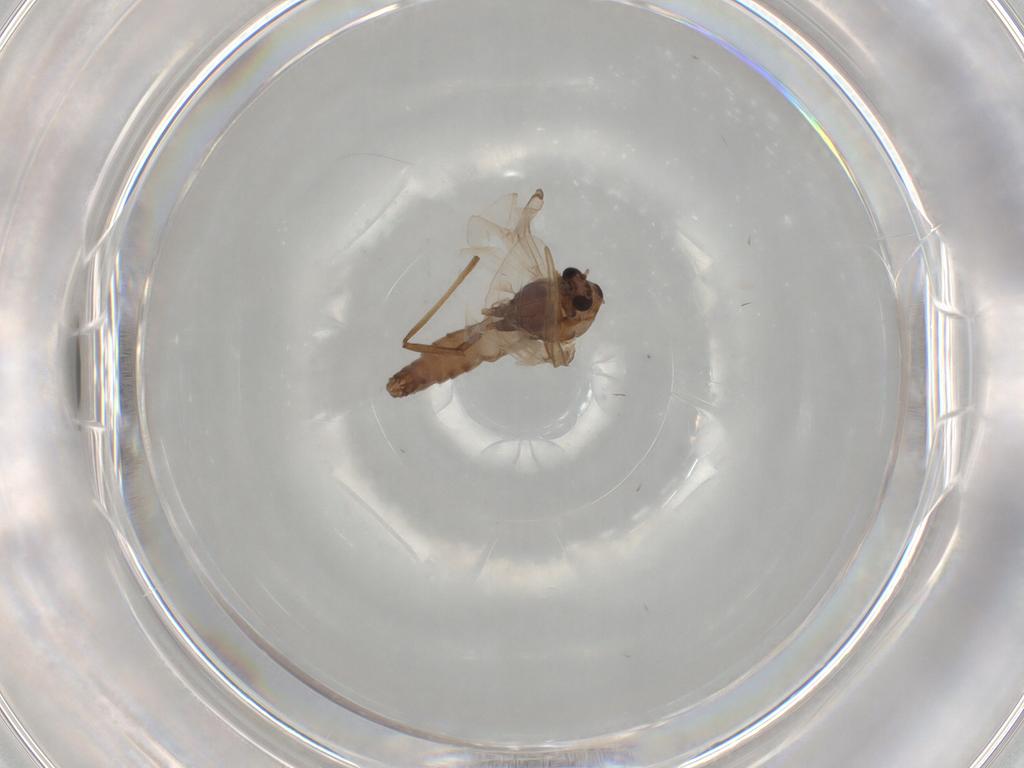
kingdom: Animalia
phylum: Arthropoda
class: Insecta
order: Diptera
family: Chironomidae
